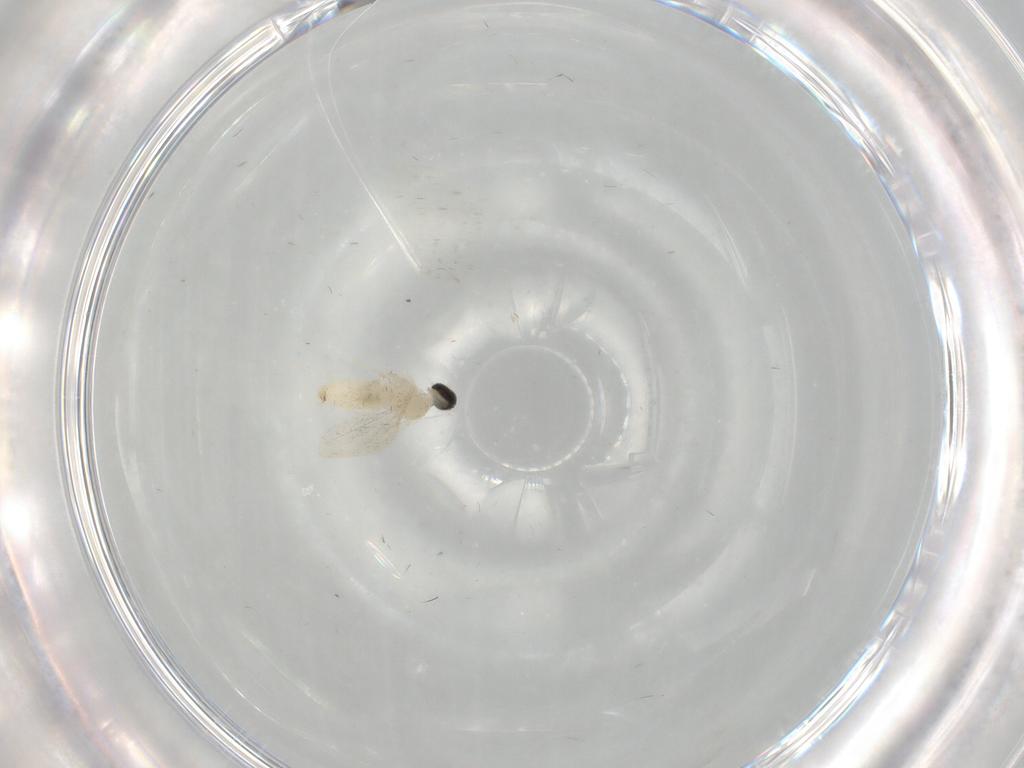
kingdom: Animalia
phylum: Arthropoda
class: Insecta
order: Diptera
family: Cecidomyiidae
